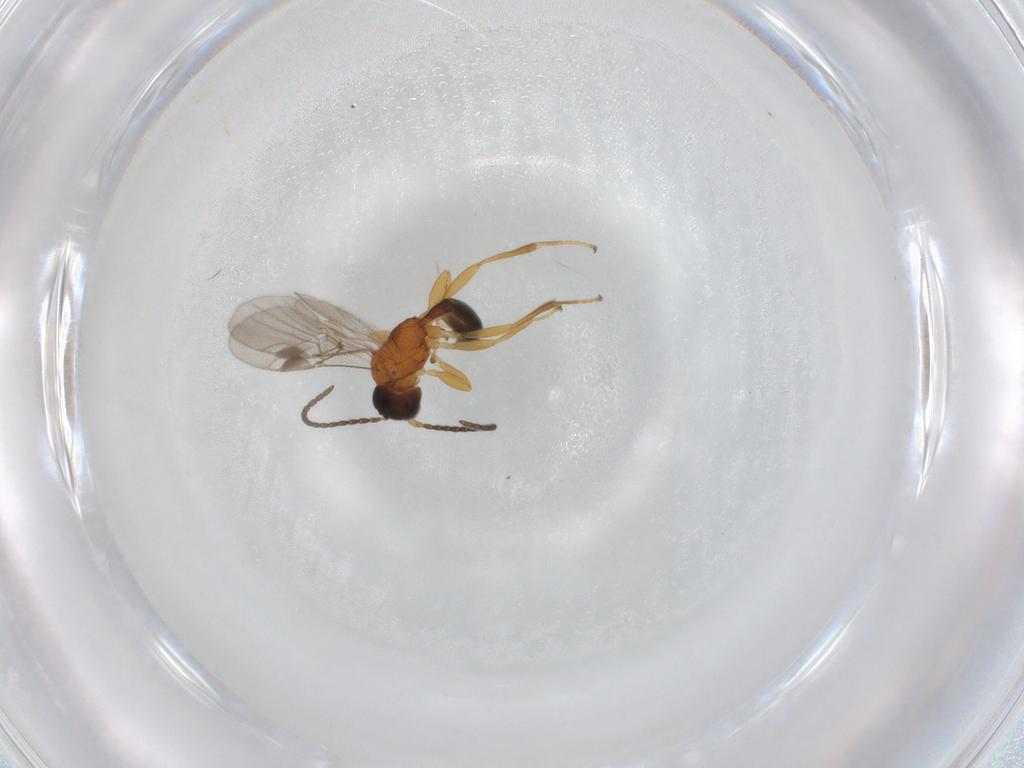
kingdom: Animalia
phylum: Arthropoda
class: Insecta
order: Hymenoptera
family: Braconidae
